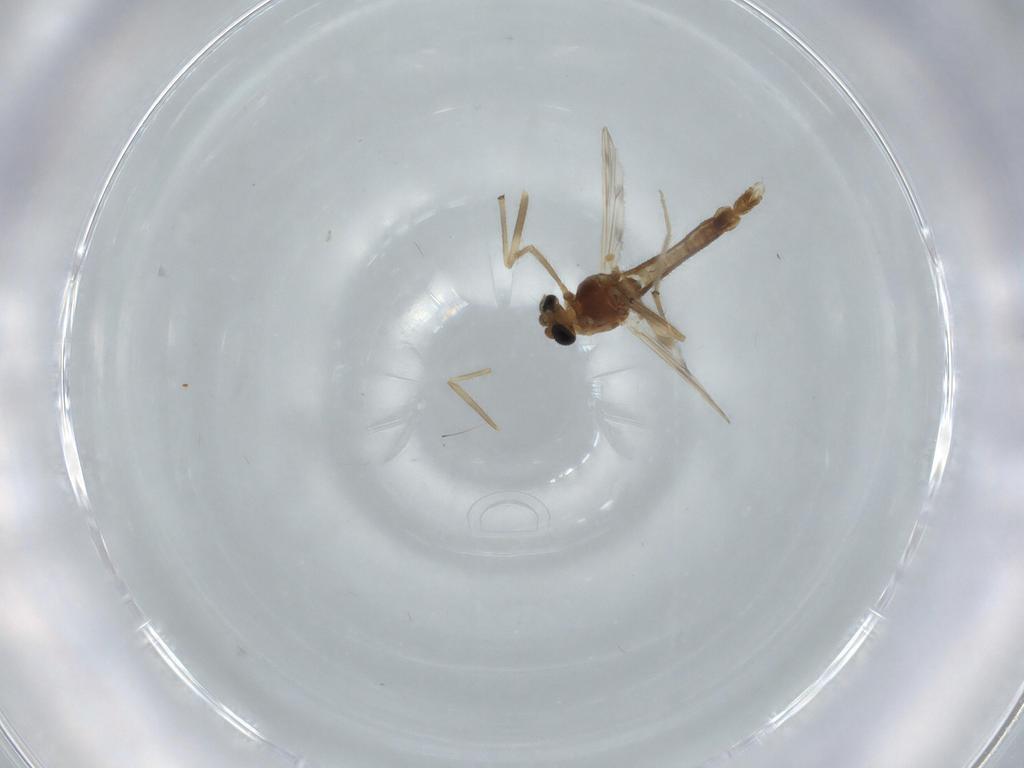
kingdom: Animalia
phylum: Arthropoda
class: Insecta
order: Diptera
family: Chironomidae
